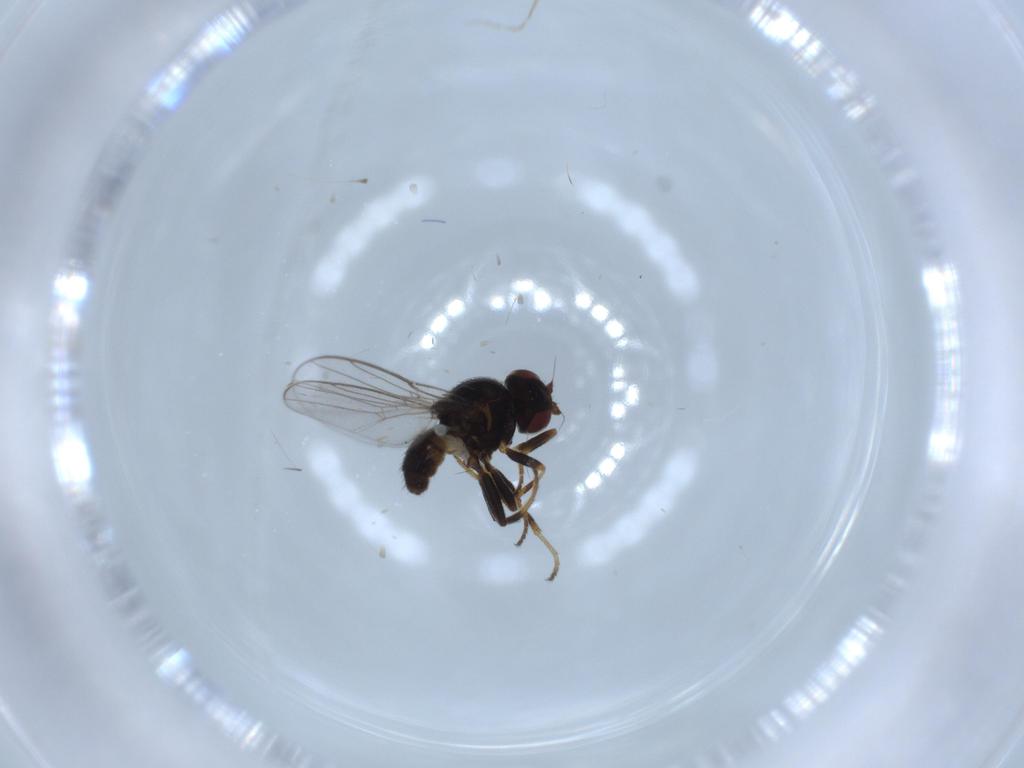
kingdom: Animalia
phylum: Arthropoda
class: Insecta
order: Diptera
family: Chloropidae
